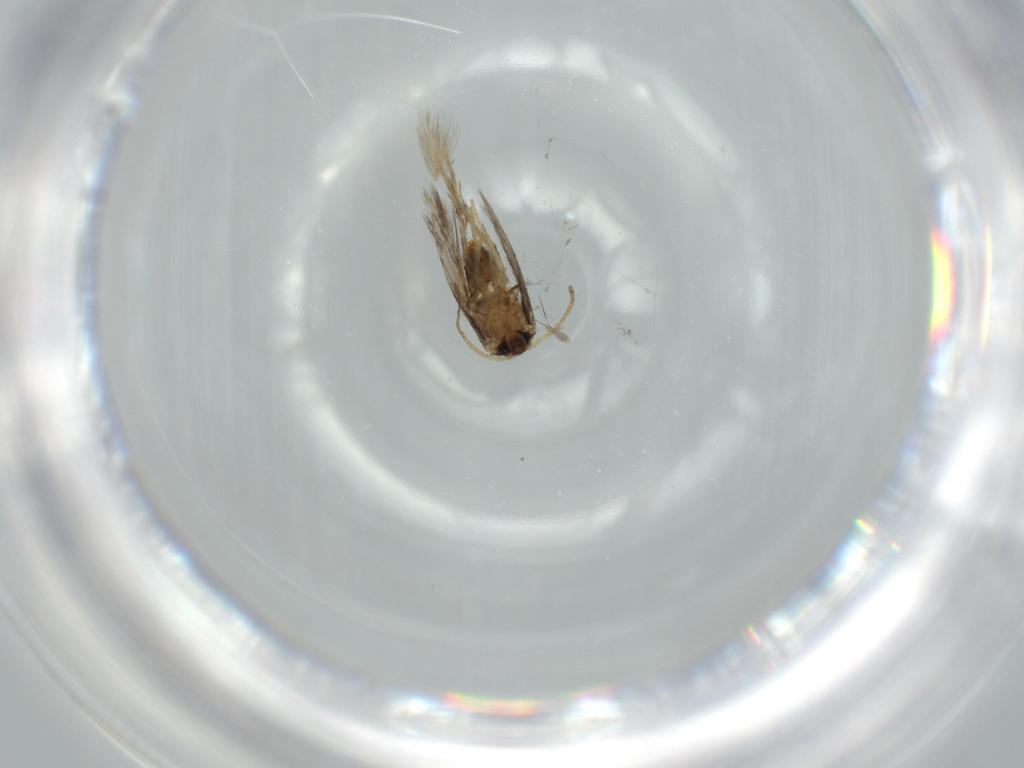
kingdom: Animalia
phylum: Arthropoda
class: Insecta
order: Lepidoptera
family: Nepticulidae
